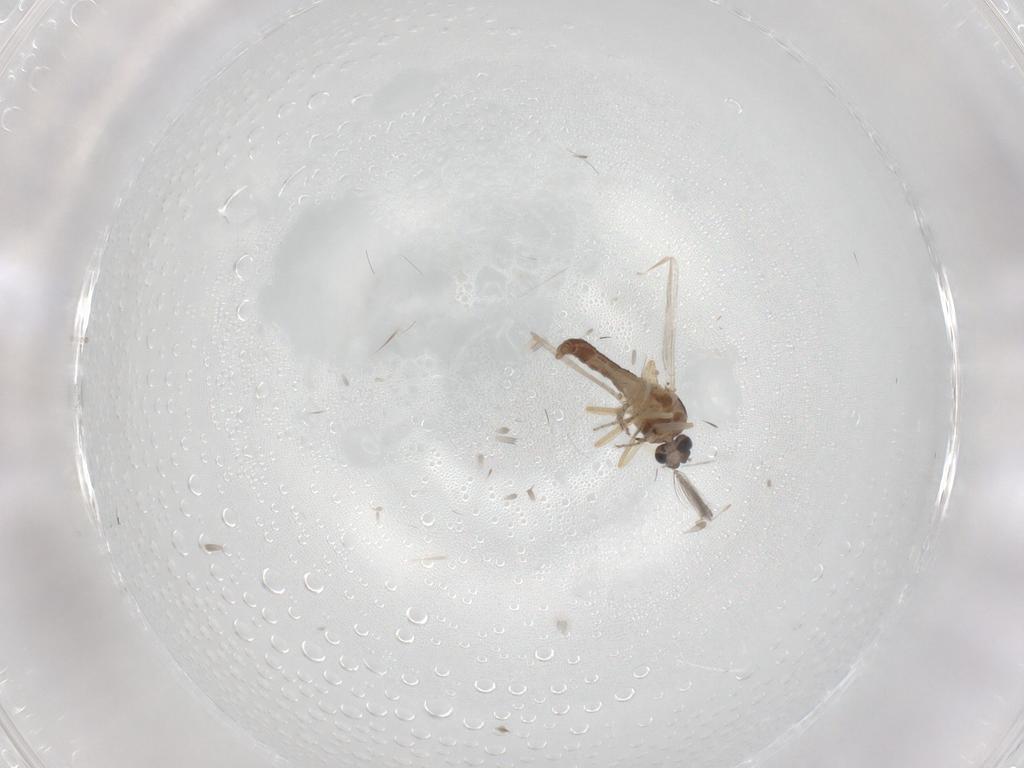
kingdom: Animalia
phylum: Arthropoda
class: Insecta
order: Diptera
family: Ceratopogonidae
